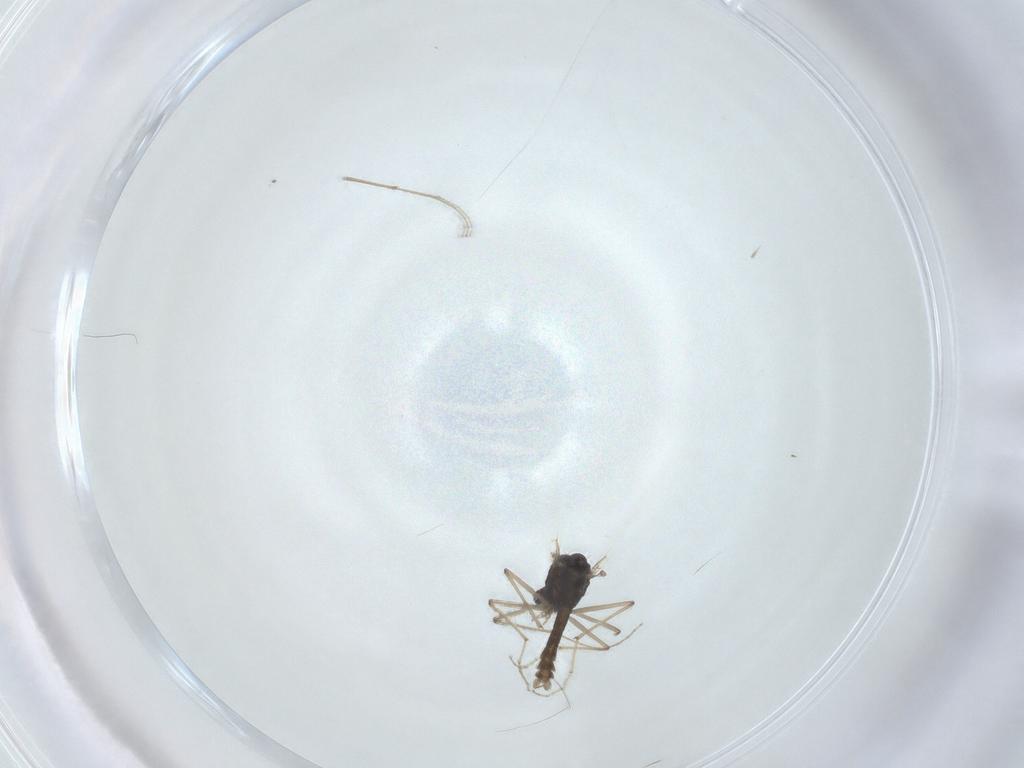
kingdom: Animalia
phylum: Arthropoda
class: Insecta
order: Diptera
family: Chironomidae
